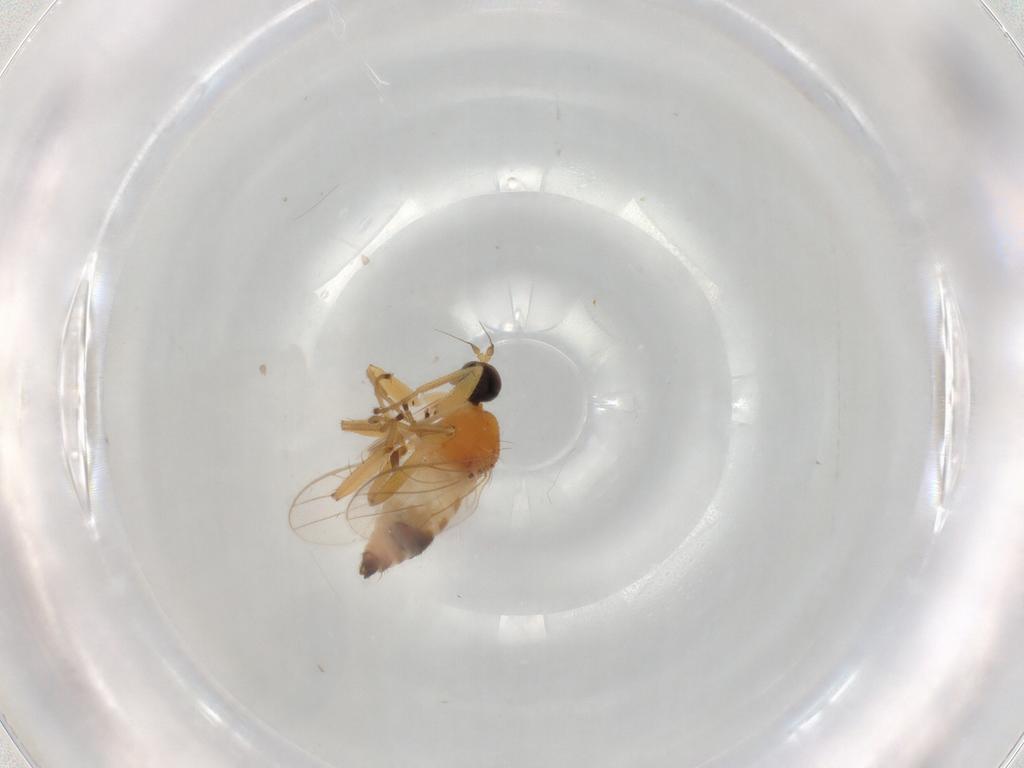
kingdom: Animalia
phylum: Arthropoda
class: Insecta
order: Diptera
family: Hybotidae
